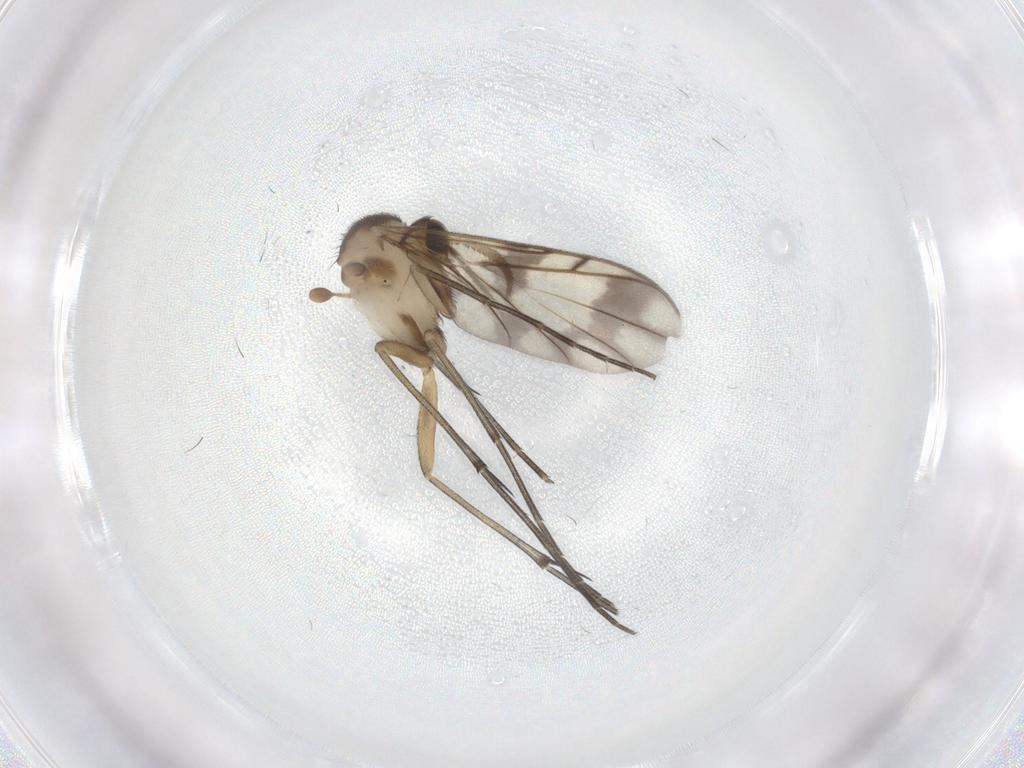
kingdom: Animalia
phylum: Arthropoda
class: Insecta
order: Diptera
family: Keroplatidae
